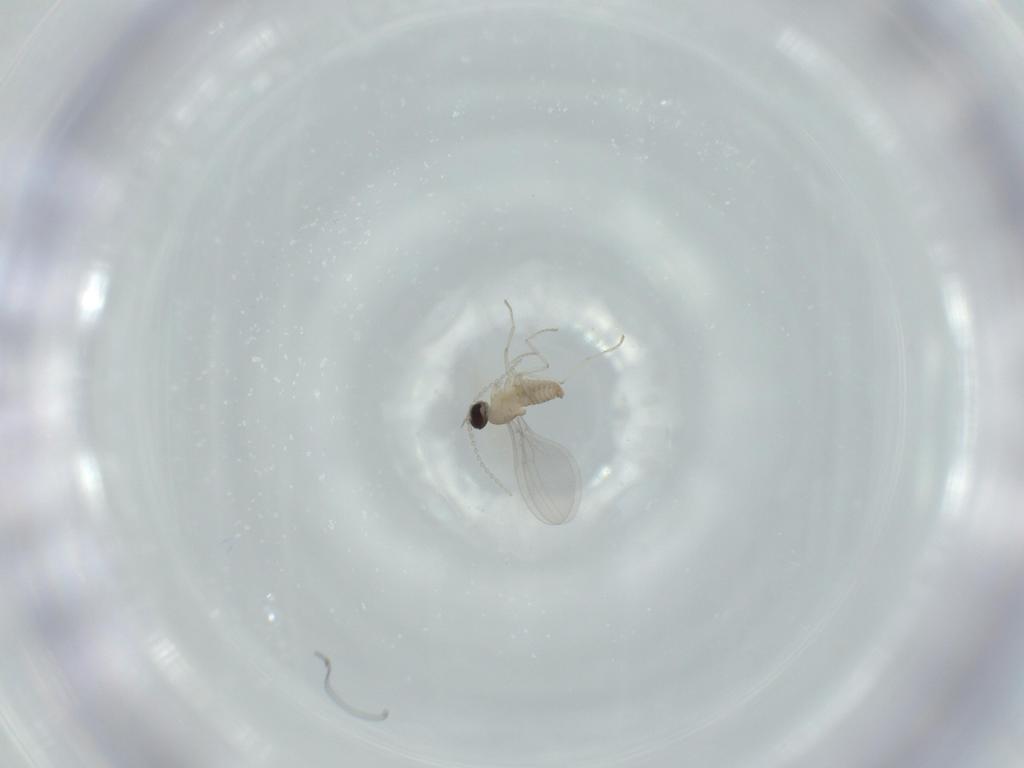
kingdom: Animalia
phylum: Arthropoda
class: Insecta
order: Diptera
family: Cecidomyiidae
